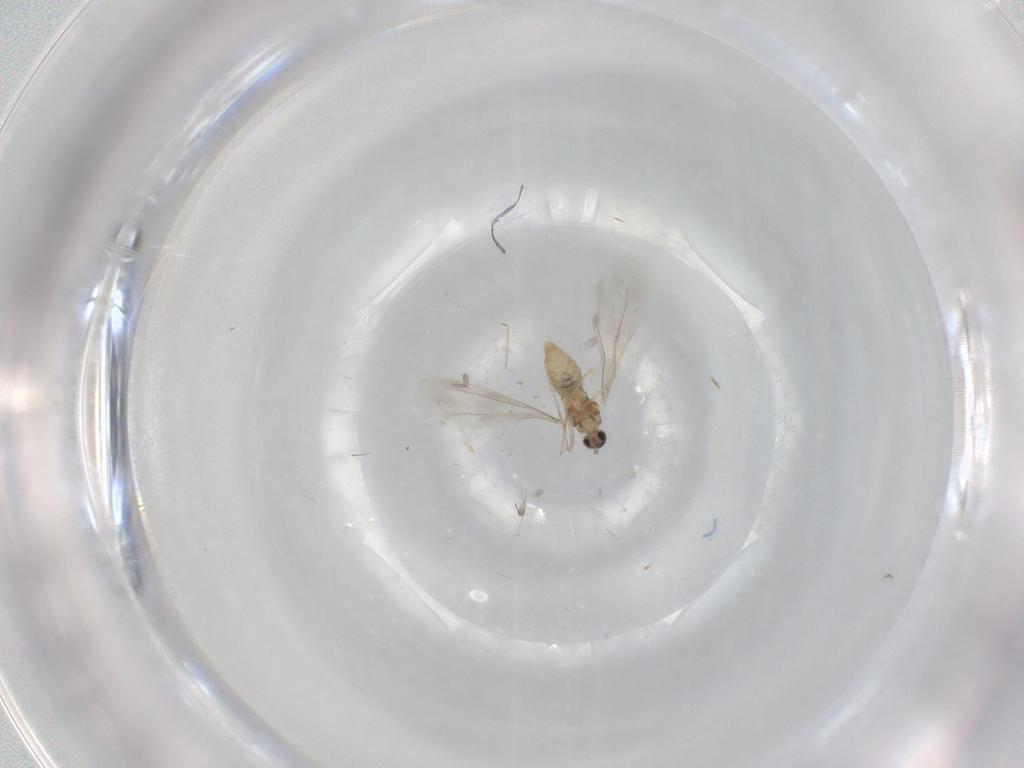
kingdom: Animalia
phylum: Arthropoda
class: Insecta
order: Diptera
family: Cecidomyiidae
